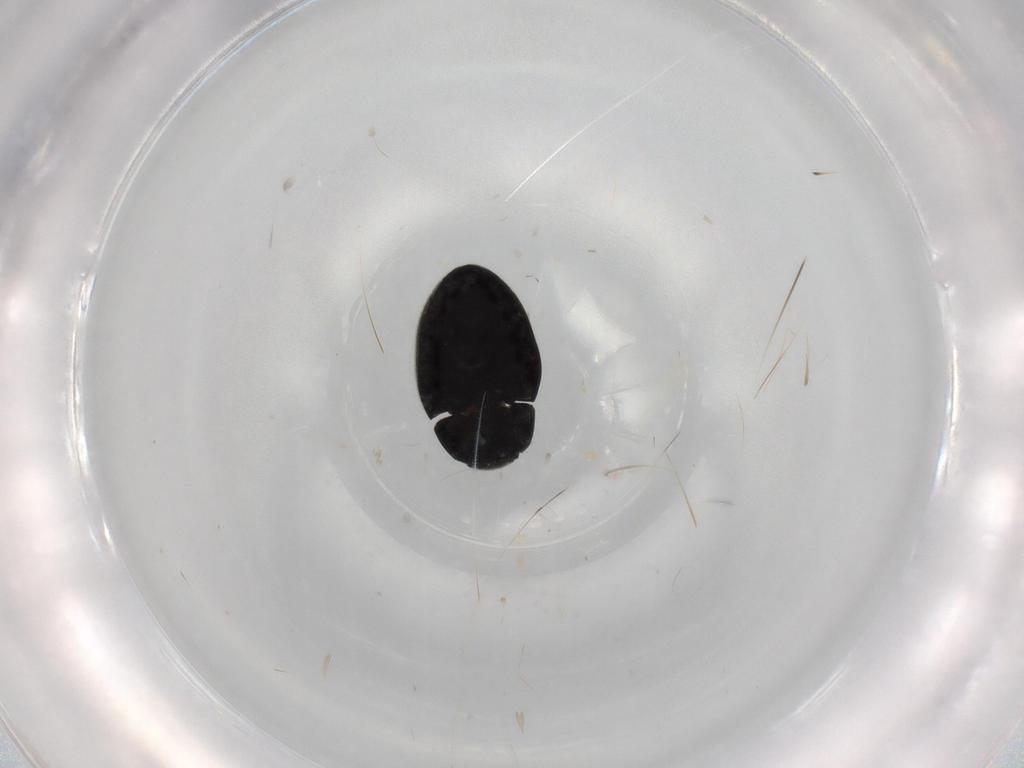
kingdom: Animalia
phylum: Arthropoda
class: Insecta
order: Coleoptera
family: Limnichidae
